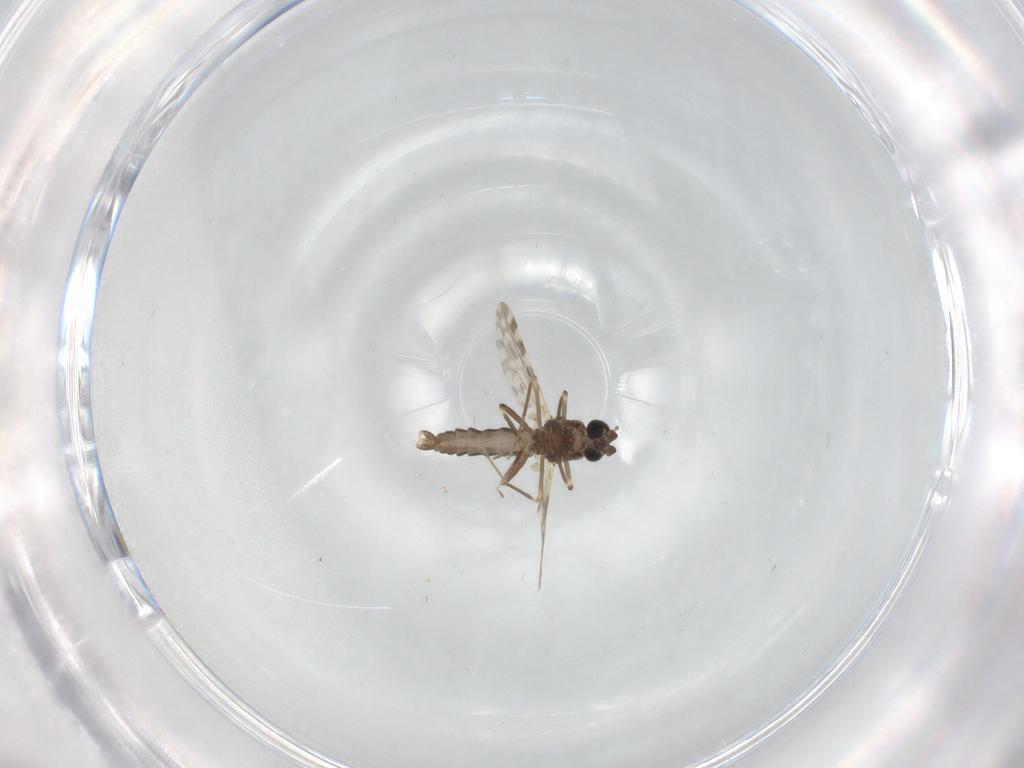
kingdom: Animalia
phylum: Arthropoda
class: Insecta
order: Diptera
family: Ceratopogonidae
